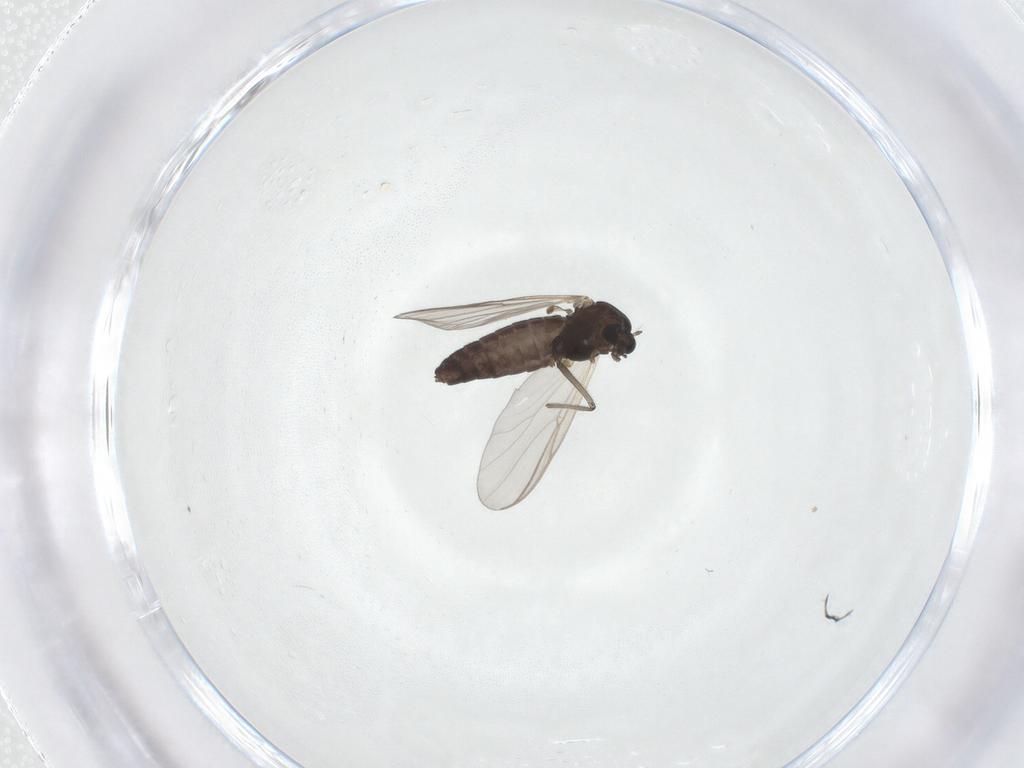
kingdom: Animalia
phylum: Arthropoda
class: Insecta
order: Diptera
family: Chironomidae
